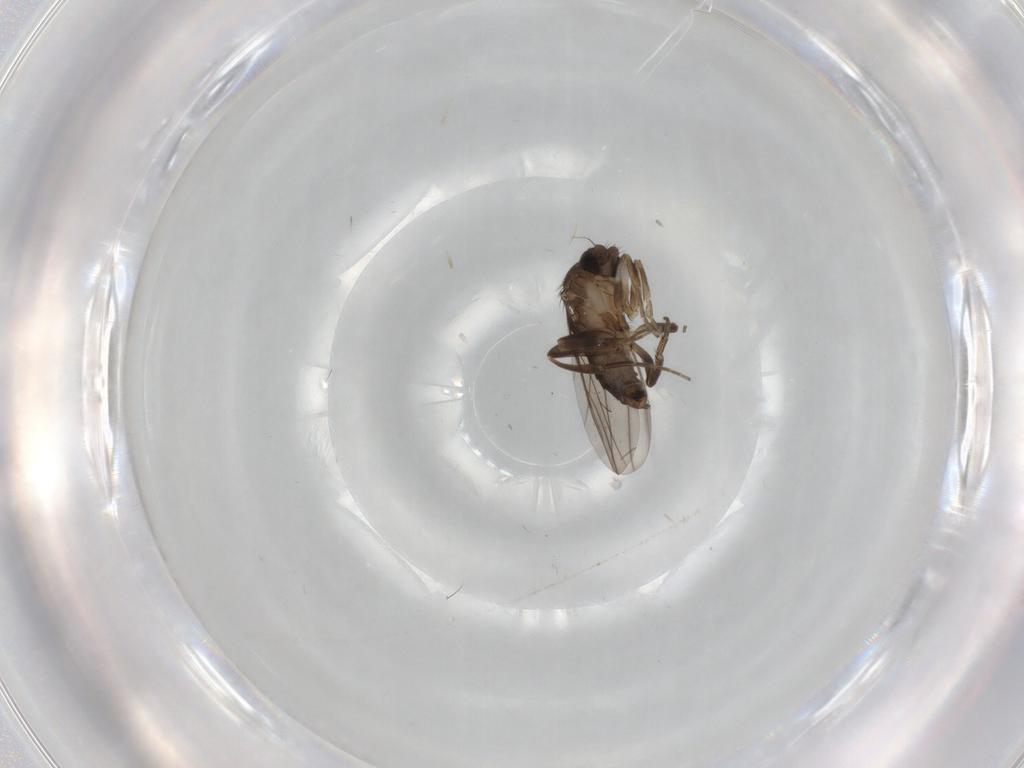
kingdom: Animalia
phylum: Arthropoda
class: Insecta
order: Diptera
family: Phoridae
